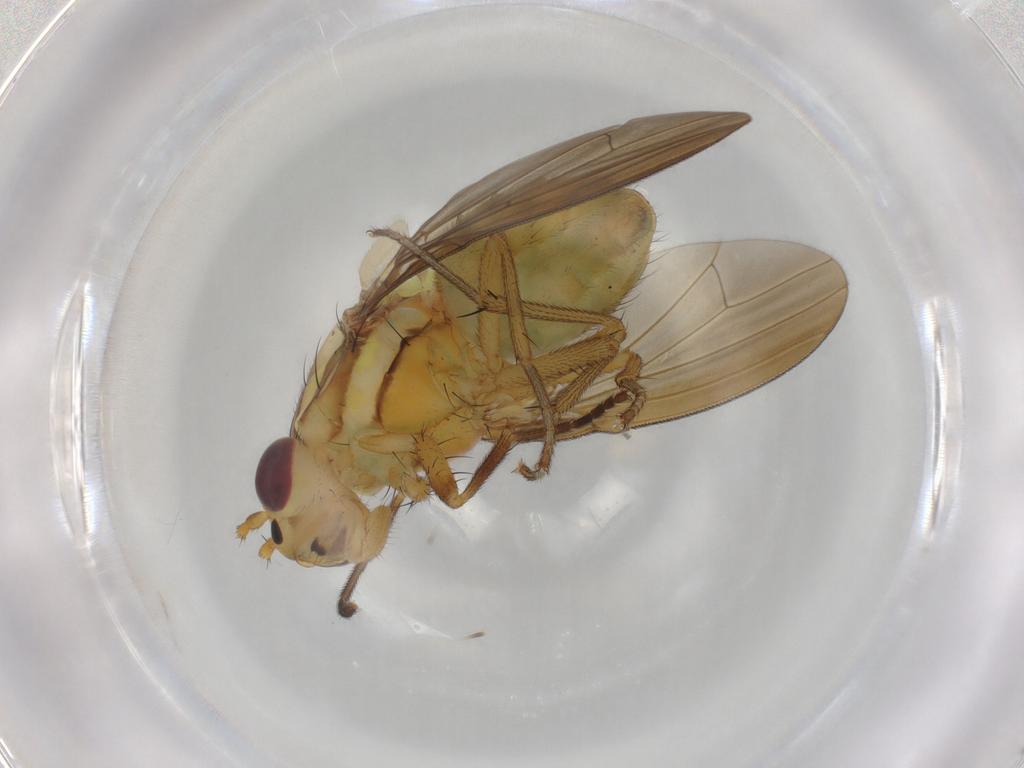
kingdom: Animalia
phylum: Arthropoda
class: Insecta
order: Diptera
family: Lauxaniidae
